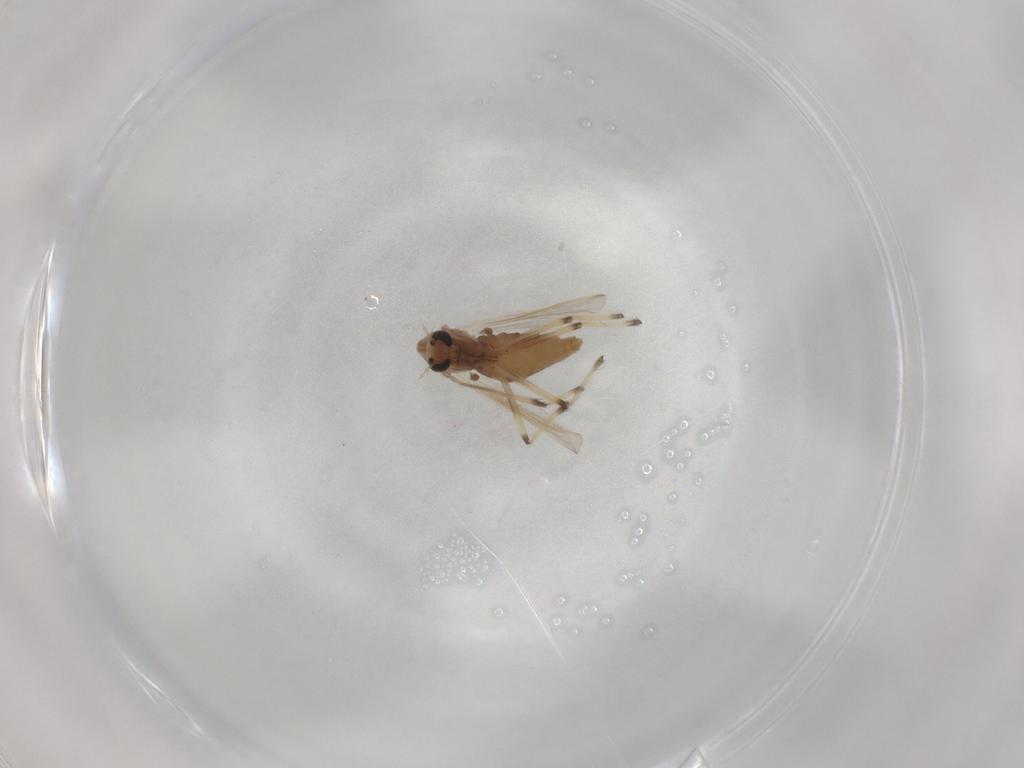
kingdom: Animalia
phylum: Arthropoda
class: Insecta
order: Diptera
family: Chironomidae
